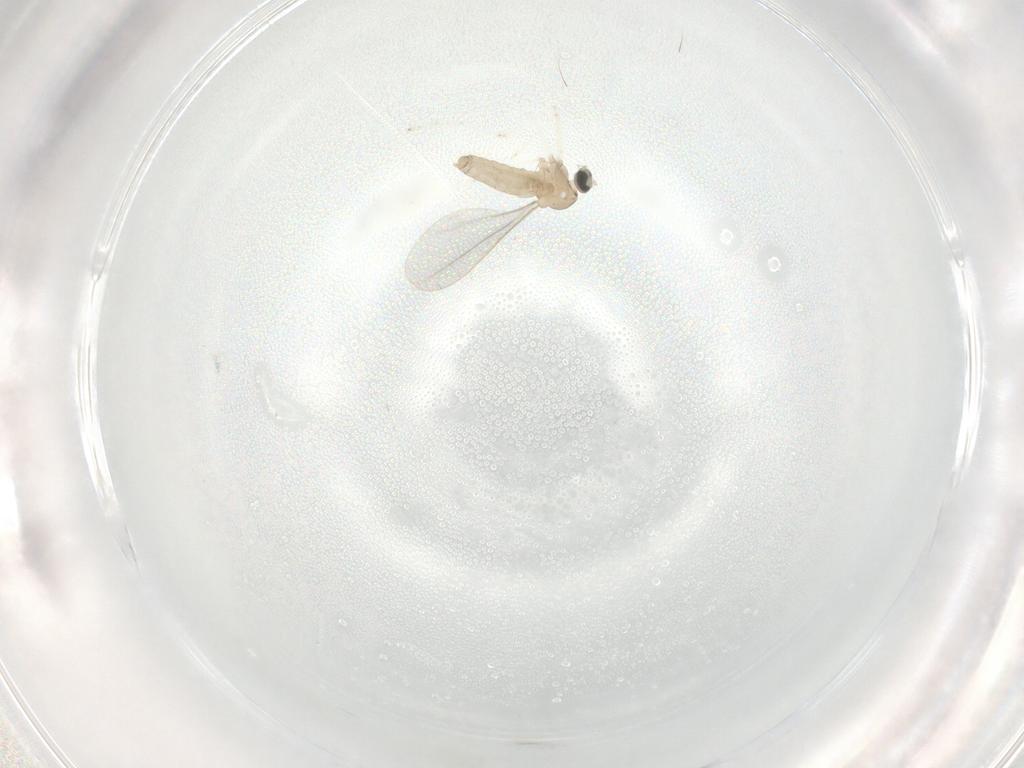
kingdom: Animalia
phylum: Arthropoda
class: Insecta
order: Diptera
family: Cecidomyiidae
